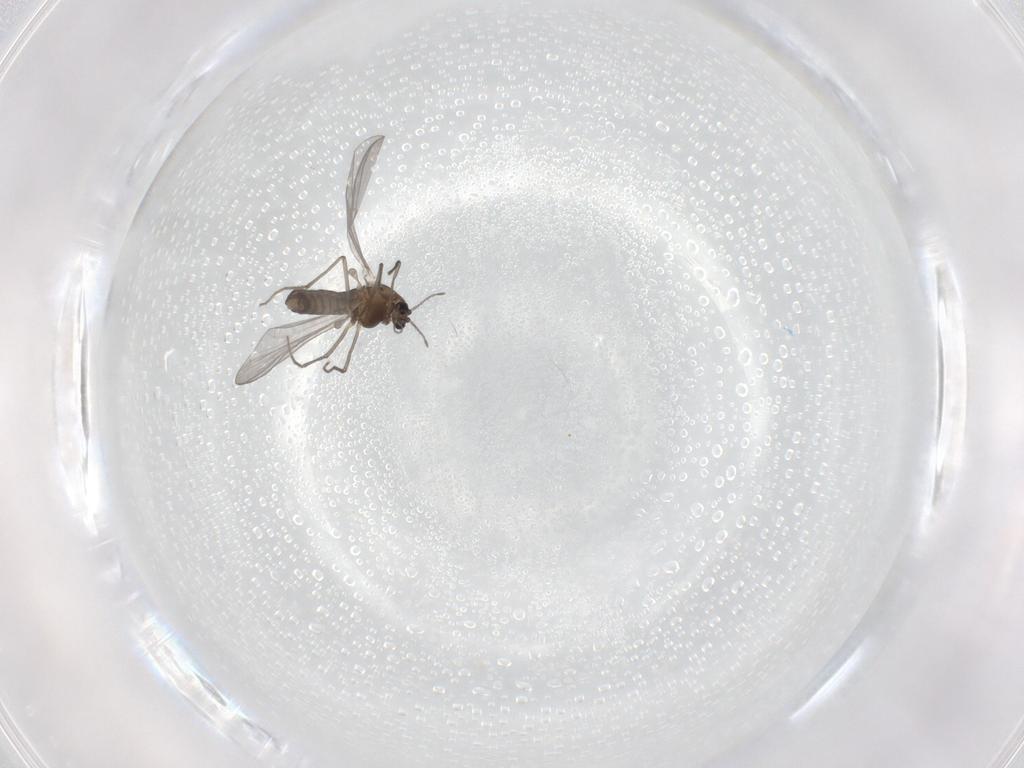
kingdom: Animalia
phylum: Arthropoda
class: Insecta
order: Diptera
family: Chironomidae
